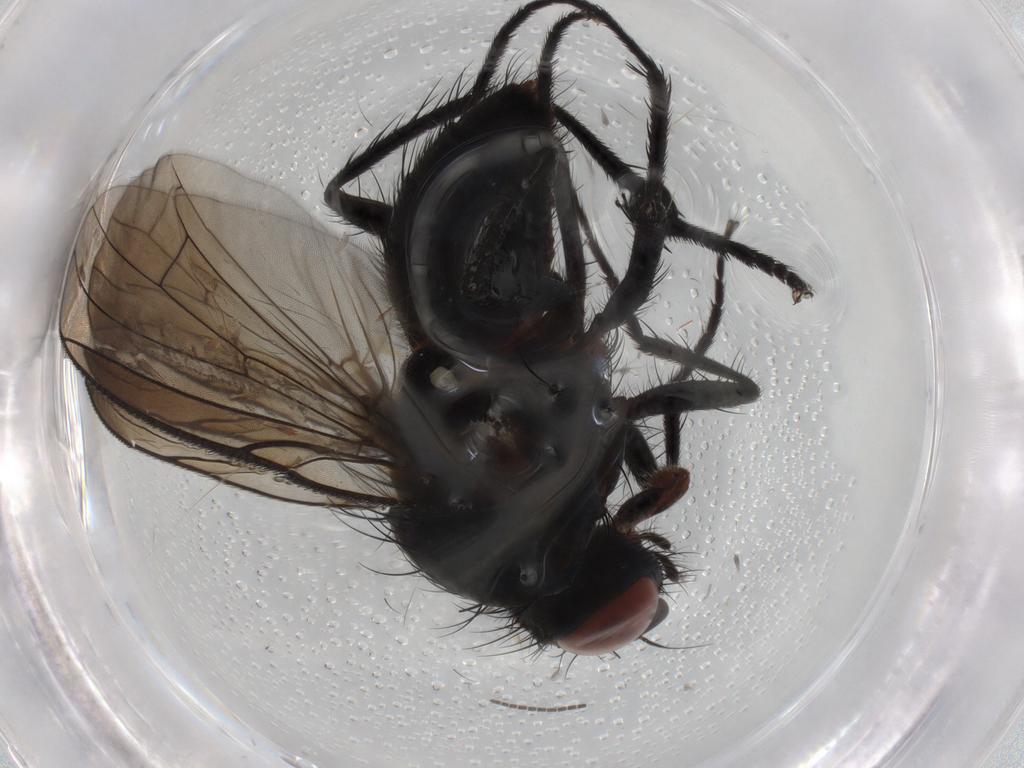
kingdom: Animalia
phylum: Arthropoda
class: Insecta
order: Diptera
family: Anthomyiidae
